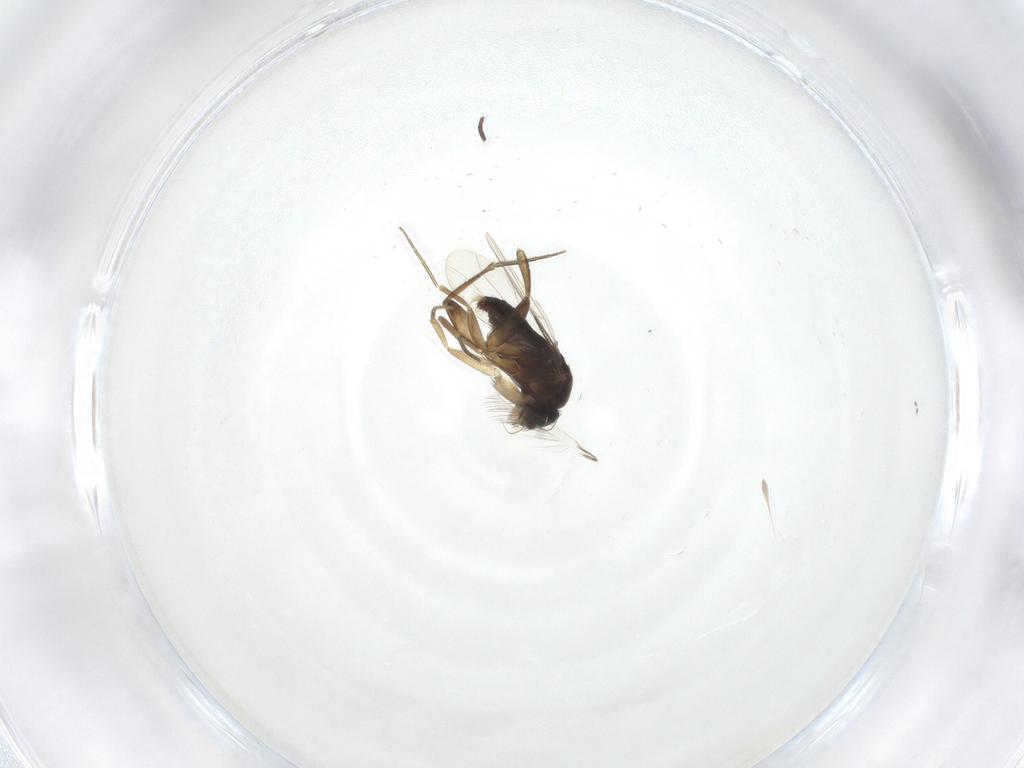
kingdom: Animalia
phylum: Arthropoda
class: Insecta
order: Diptera
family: Phoridae
